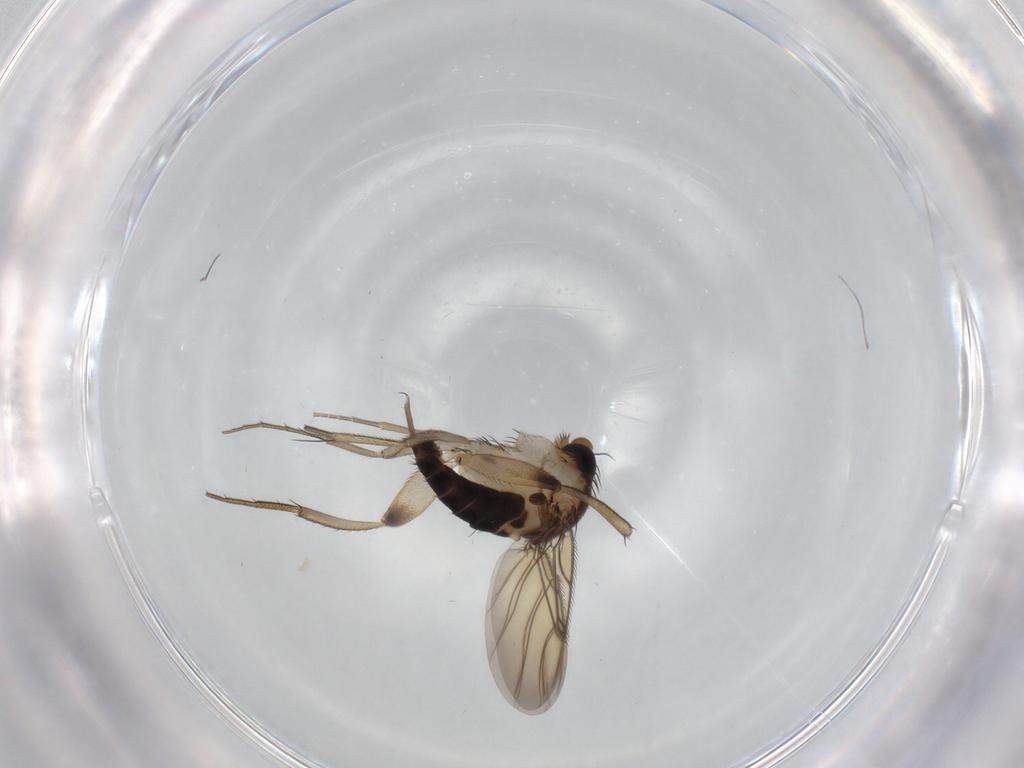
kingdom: Animalia
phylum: Arthropoda
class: Insecta
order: Diptera
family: Phoridae
